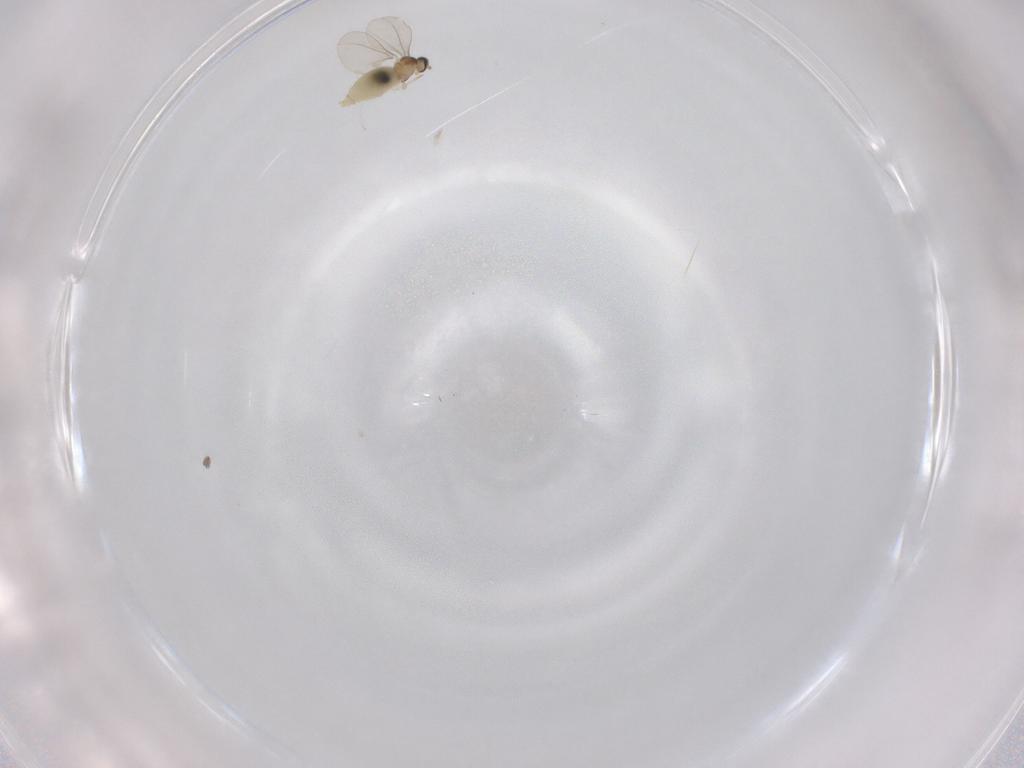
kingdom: Animalia
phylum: Arthropoda
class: Insecta
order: Diptera
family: Cecidomyiidae
